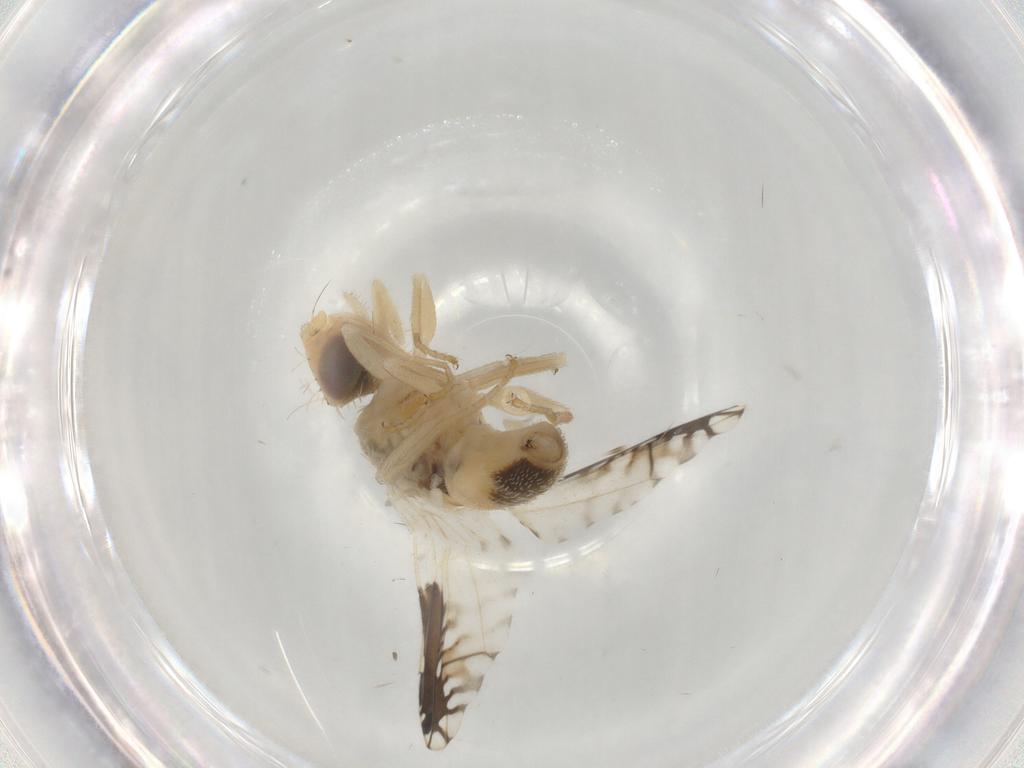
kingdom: Animalia
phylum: Arthropoda
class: Insecta
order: Diptera
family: Tephritidae
